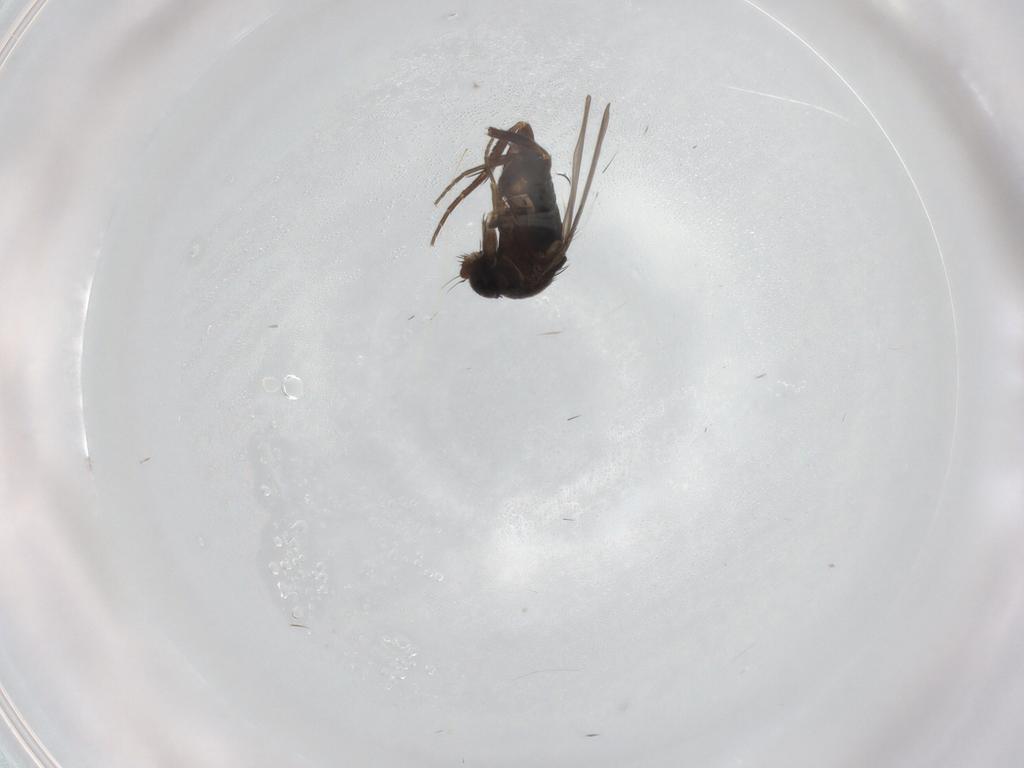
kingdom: Animalia
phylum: Arthropoda
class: Insecta
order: Diptera
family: Phoridae
